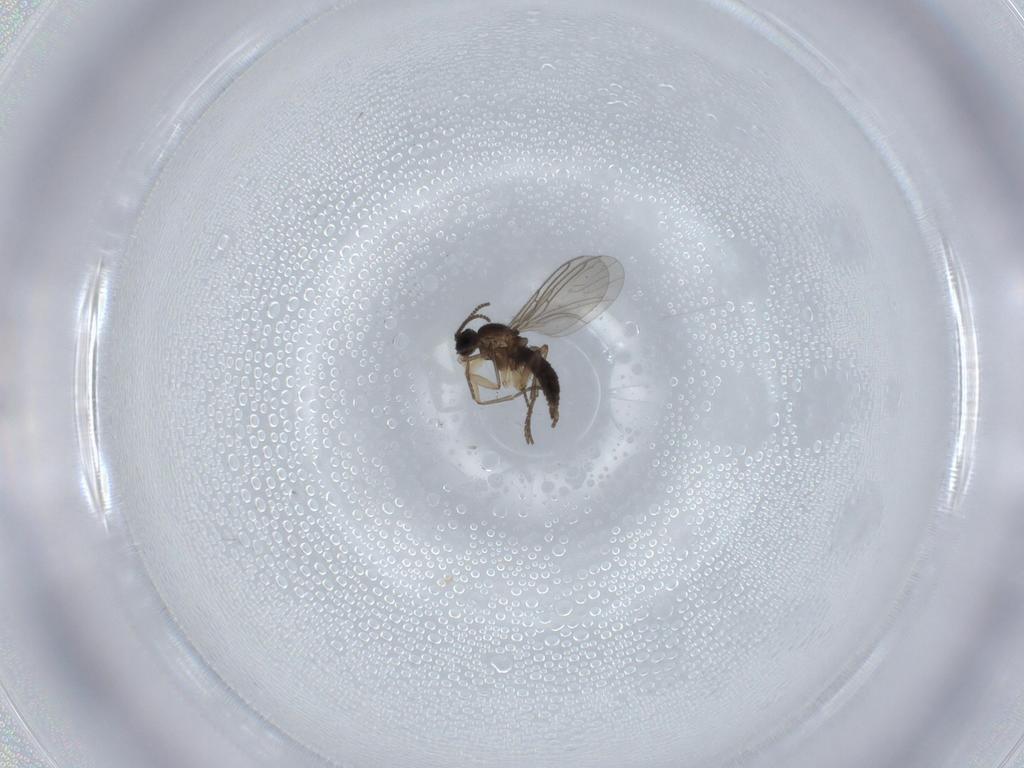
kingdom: Animalia
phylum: Arthropoda
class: Insecta
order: Diptera
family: Sciaridae
